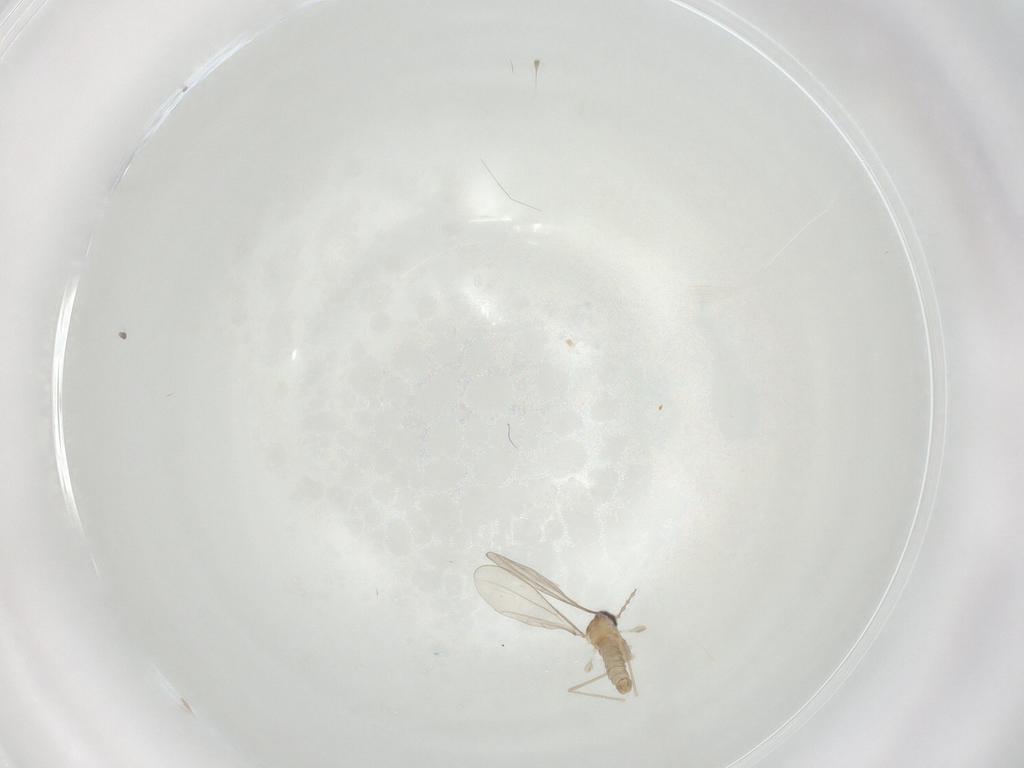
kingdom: Animalia
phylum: Arthropoda
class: Insecta
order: Diptera
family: Cecidomyiidae
